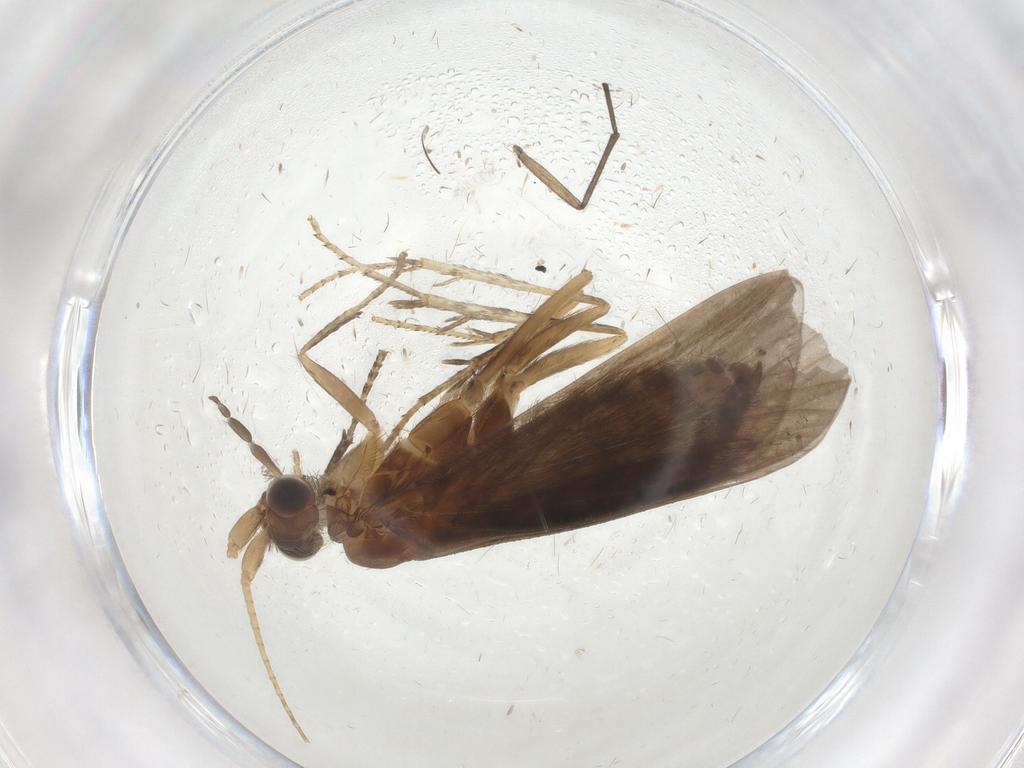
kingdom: Animalia
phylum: Arthropoda
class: Insecta
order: Trichoptera
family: Helicopsychidae
